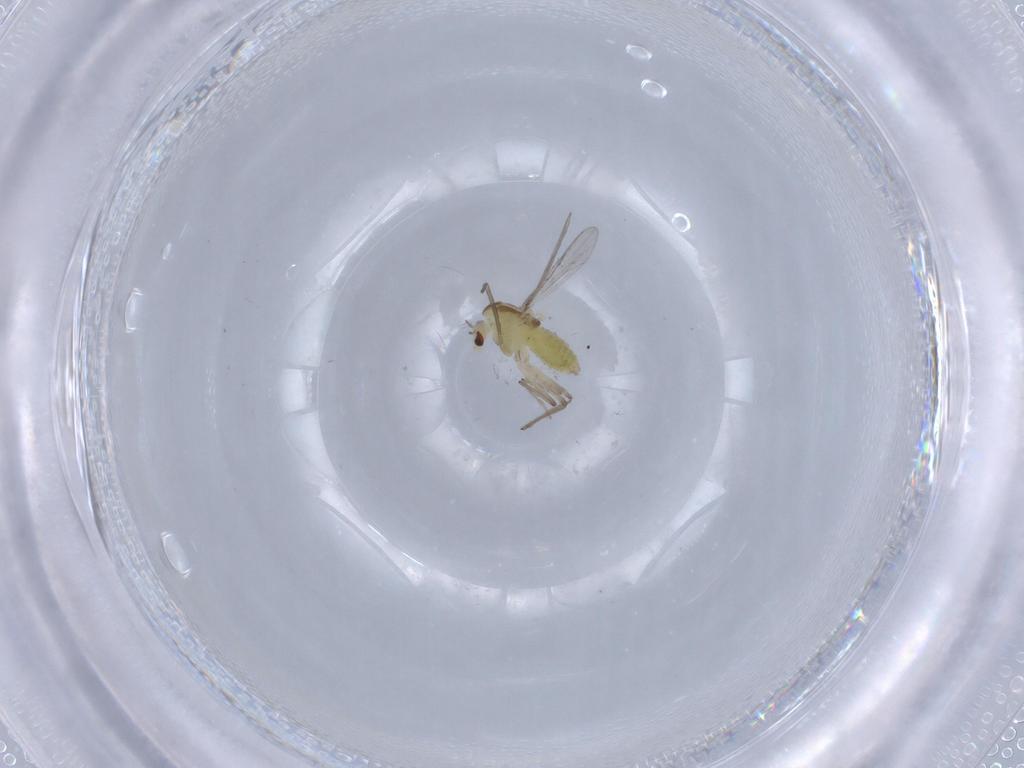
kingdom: Animalia
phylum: Arthropoda
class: Insecta
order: Diptera
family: Chironomidae
